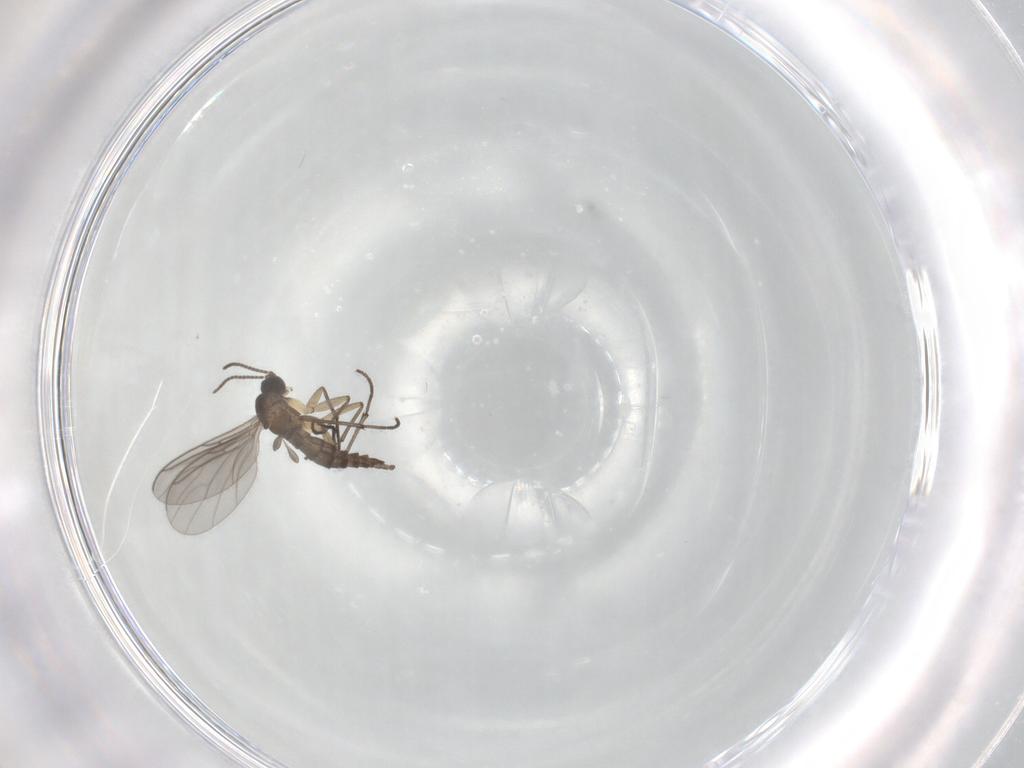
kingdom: Animalia
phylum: Arthropoda
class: Insecta
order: Diptera
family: Sciaridae
